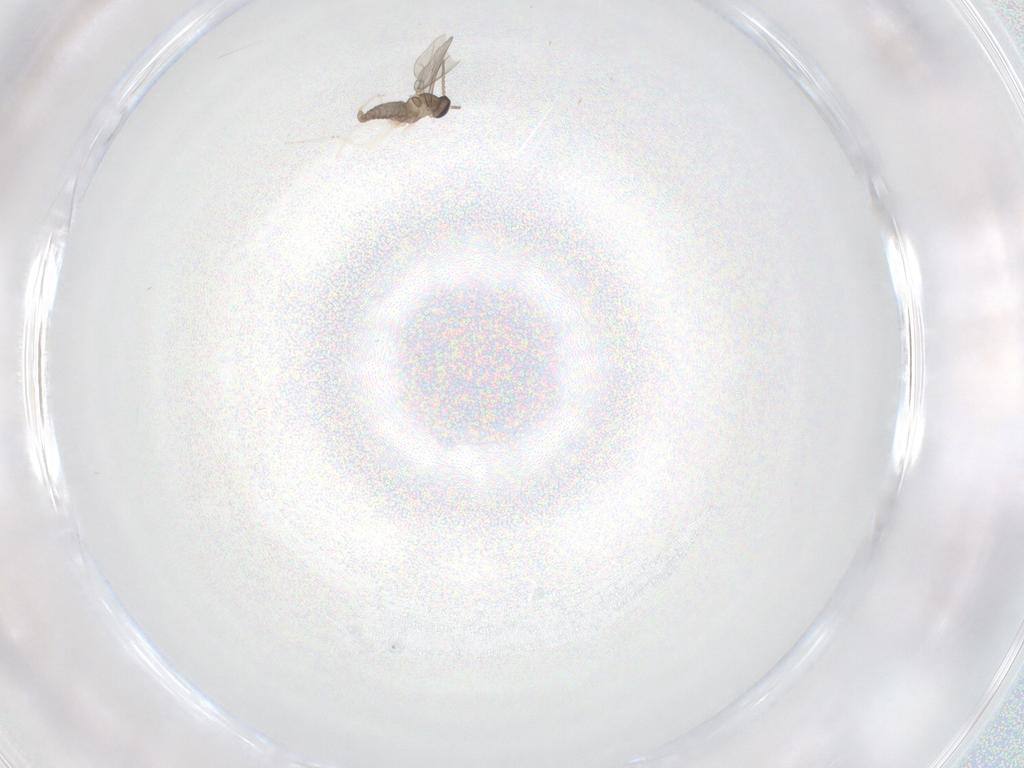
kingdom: Animalia
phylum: Arthropoda
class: Insecta
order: Diptera
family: Cecidomyiidae
